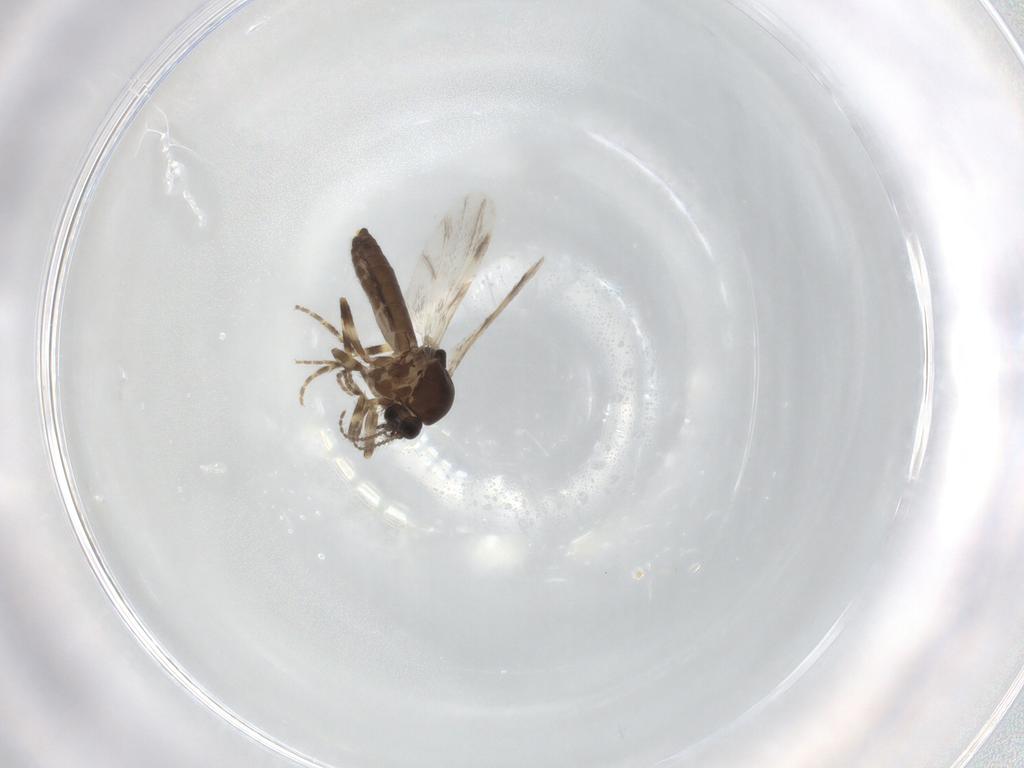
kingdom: Animalia
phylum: Arthropoda
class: Insecta
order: Diptera
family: Ceratopogonidae
